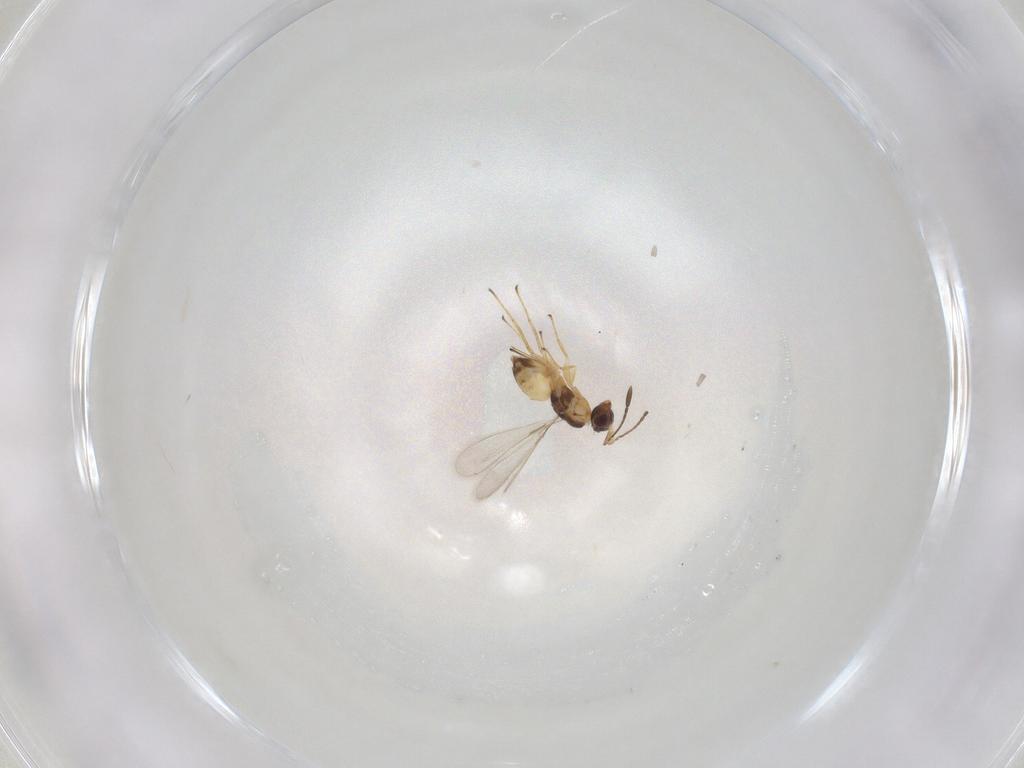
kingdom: Animalia
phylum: Arthropoda
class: Insecta
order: Hymenoptera
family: Mymaridae
